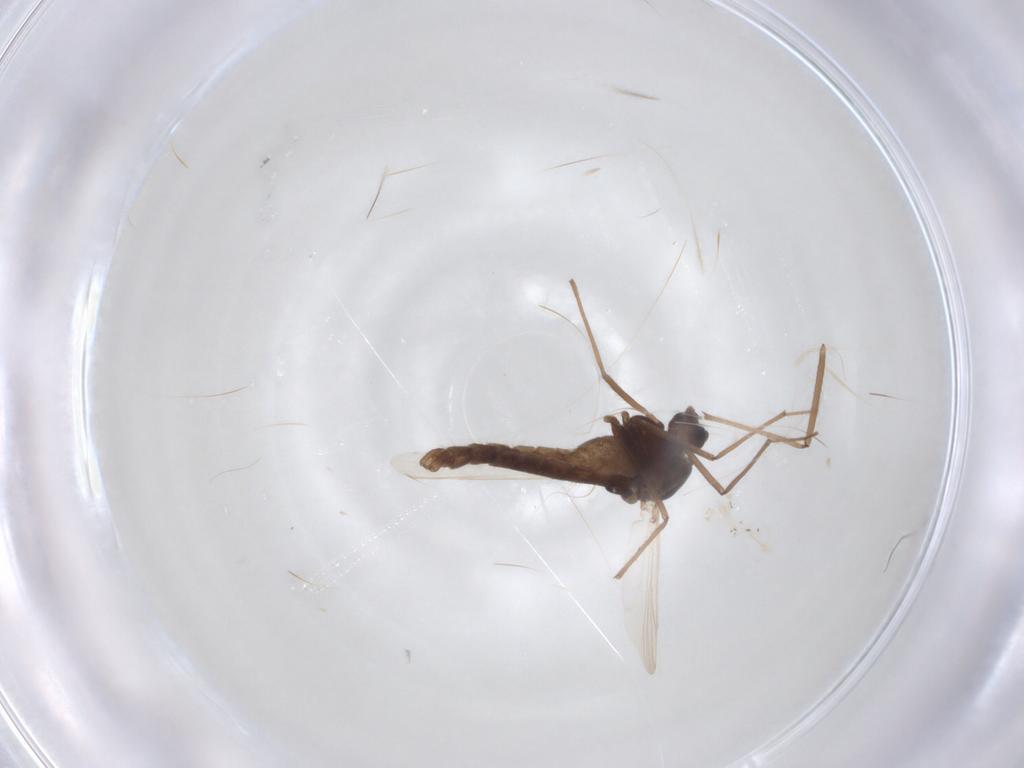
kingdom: Animalia
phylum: Arthropoda
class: Insecta
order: Diptera
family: Chironomidae
